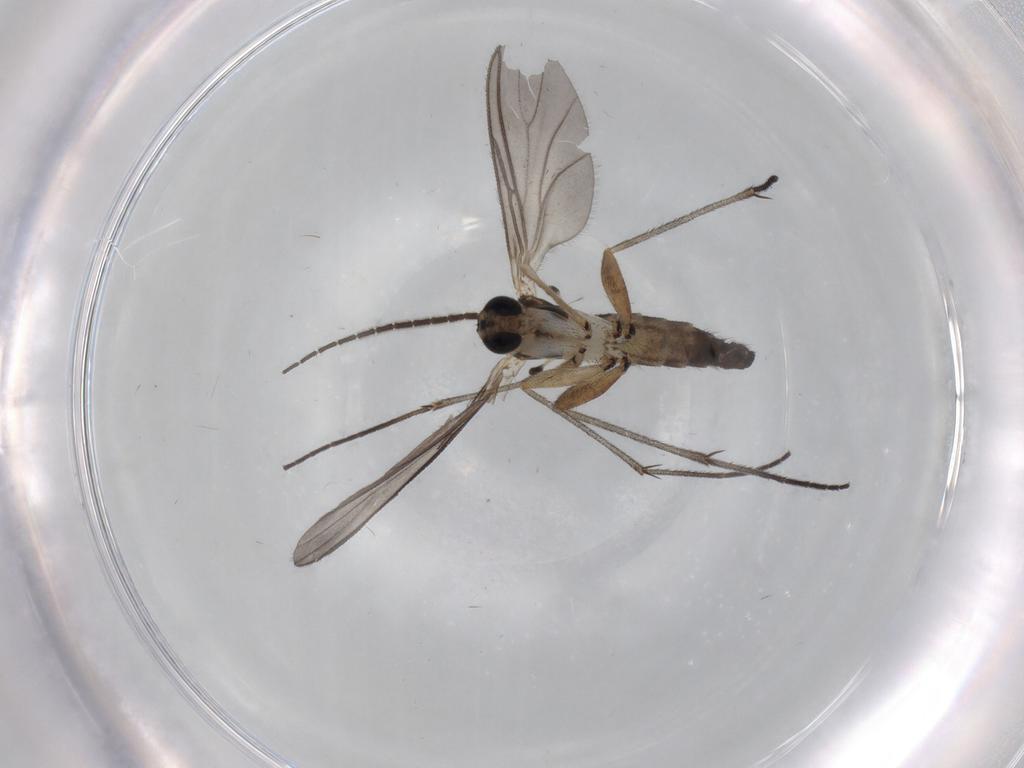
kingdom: Animalia
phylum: Arthropoda
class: Insecta
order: Diptera
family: Sciaridae
